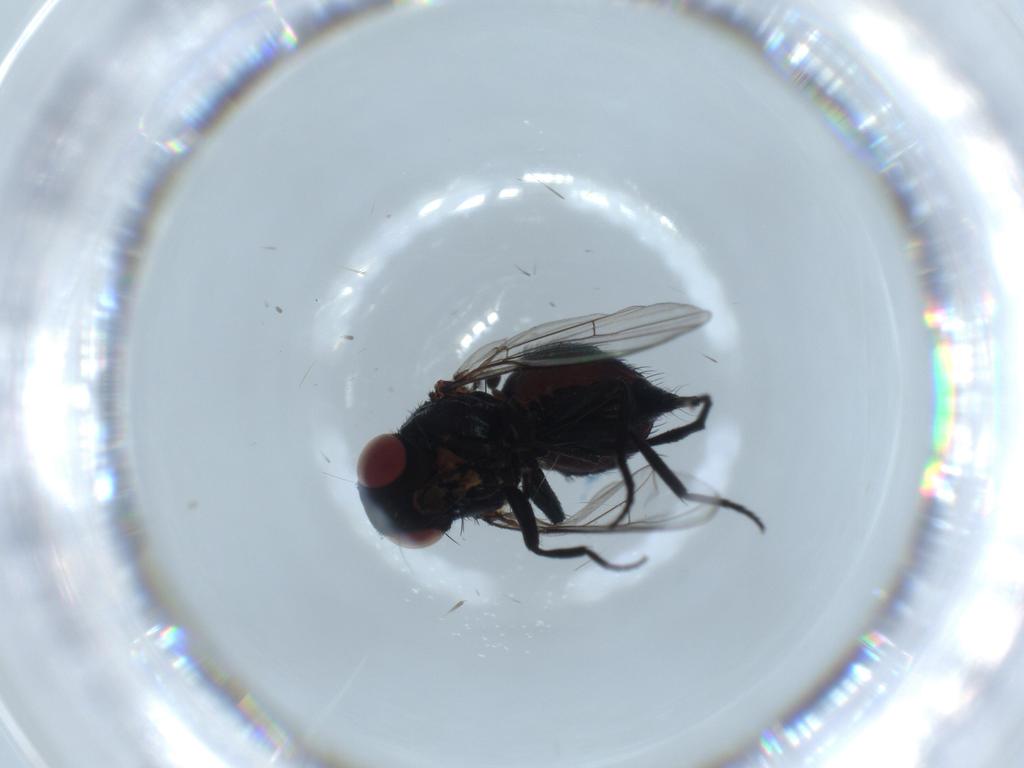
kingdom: Animalia
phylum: Arthropoda
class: Insecta
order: Diptera
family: Agromyzidae
